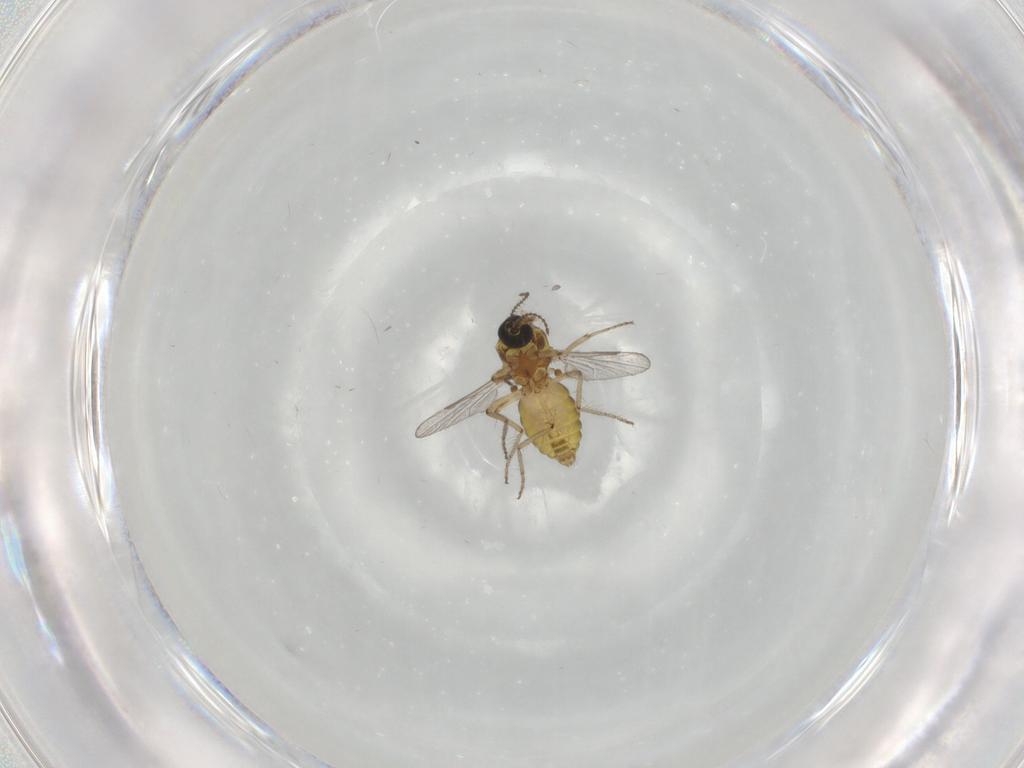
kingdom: Animalia
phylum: Arthropoda
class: Insecta
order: Diptera
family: Ceratopogonidae
